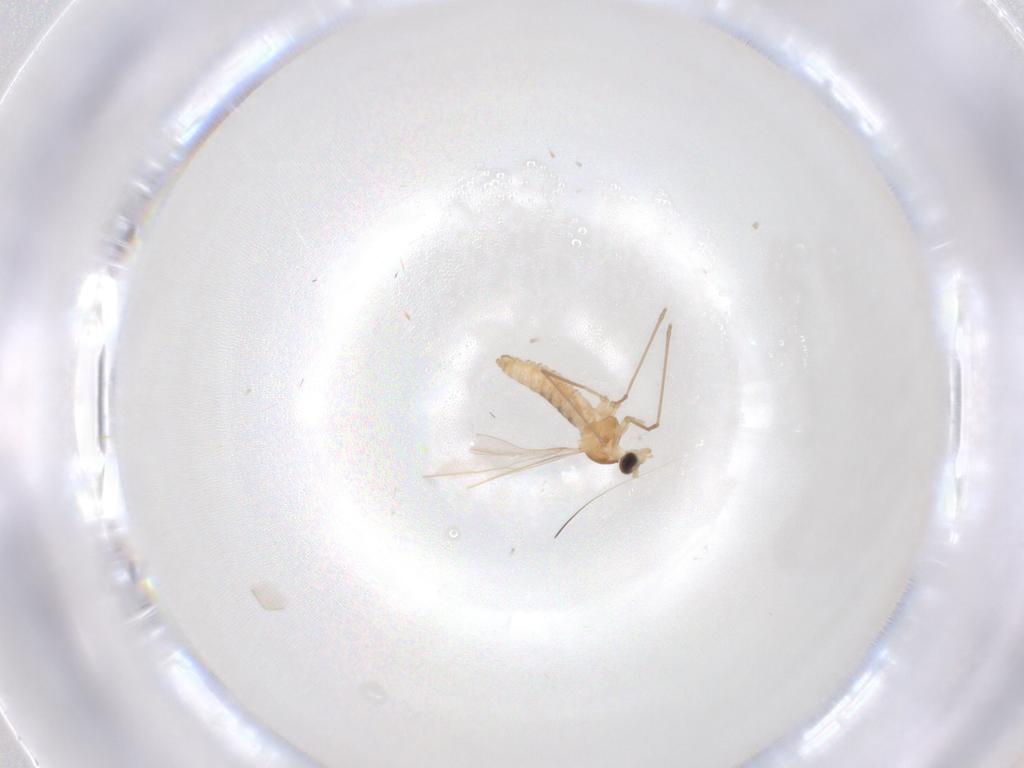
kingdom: Animalia
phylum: Arthropoda
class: Insecta
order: Diptera
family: Cecidomyiidae
